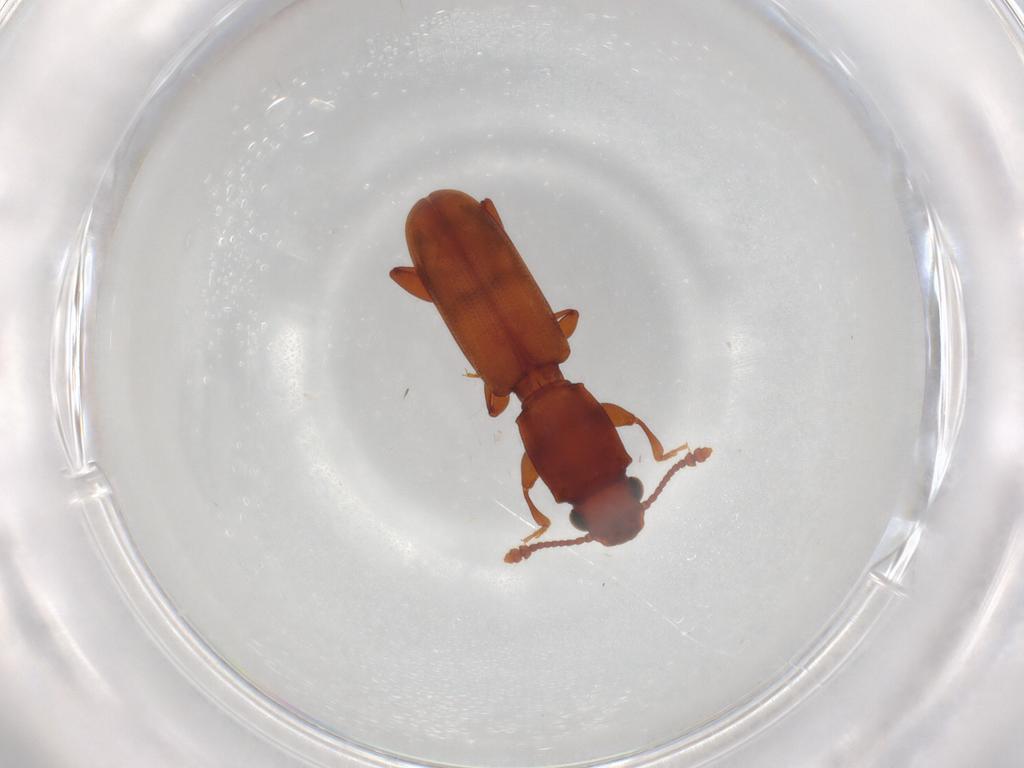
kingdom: Animalia
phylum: Arthropoda
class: Insecta
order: Coleoptera
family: Coccinellidae
